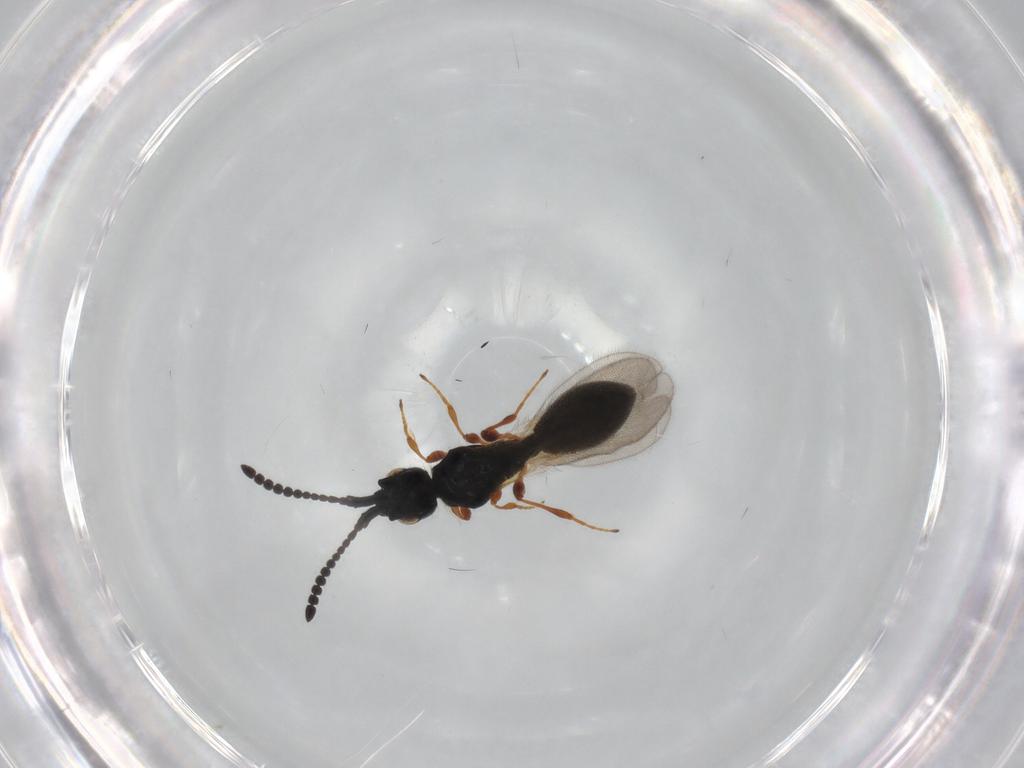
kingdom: Animalia
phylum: Arthropoda
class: Insecta
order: Hymenoptera
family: Diapriidae
